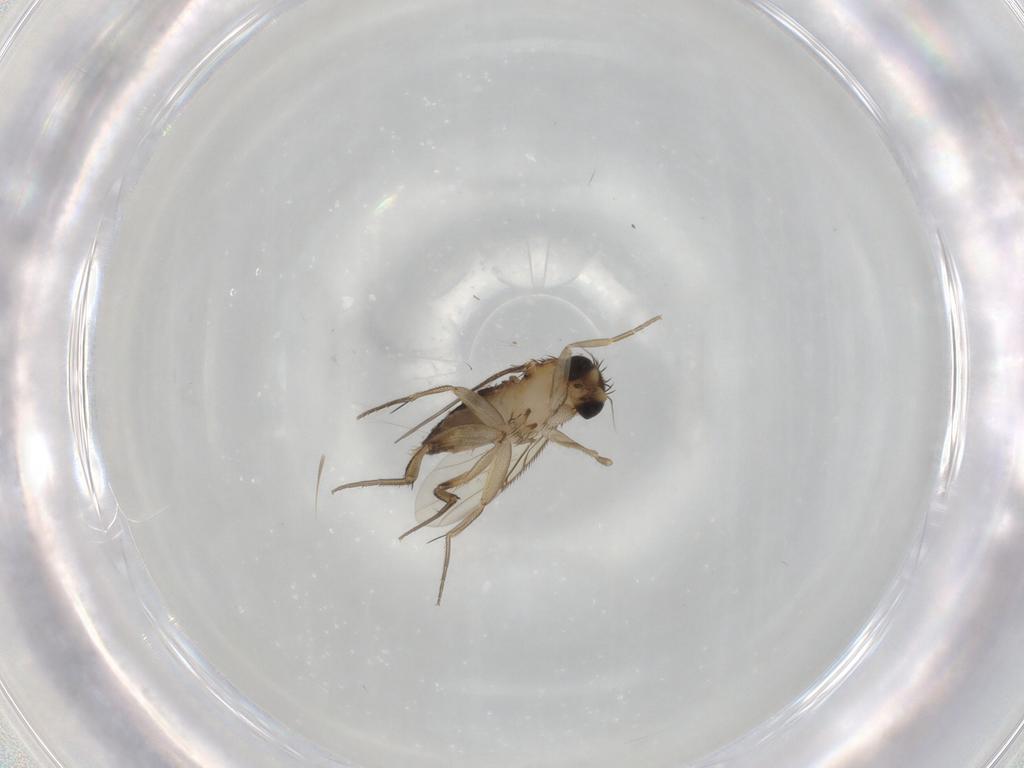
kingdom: Animalia
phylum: Arthropoda
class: Insecta
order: Diptera
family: Phoridae
